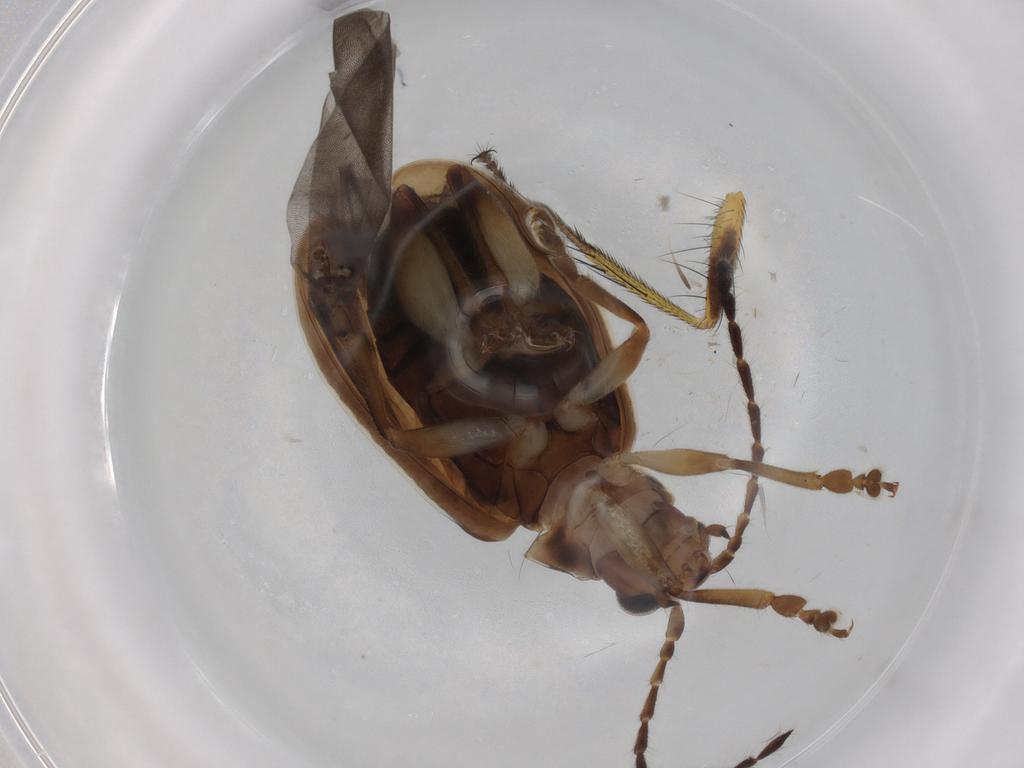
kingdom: Animalia
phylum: Arthropoda
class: Insecta
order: Coleoptera
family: Chrysomelidae
